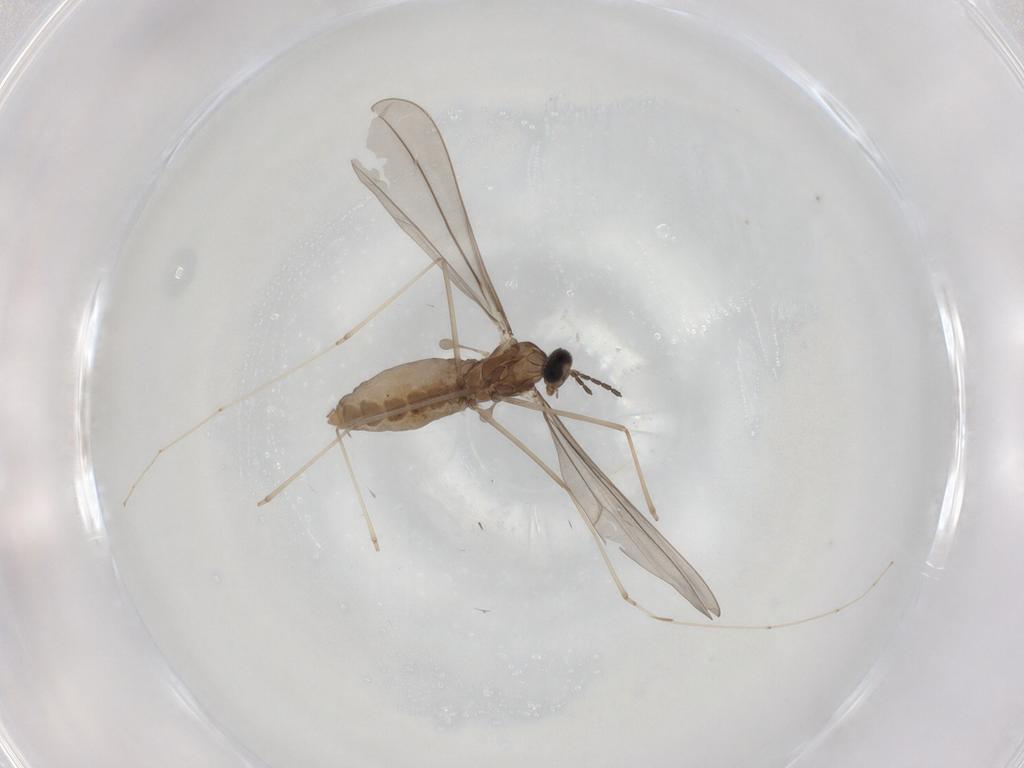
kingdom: Animalia
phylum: Arthropoda
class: Insecta
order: Diptera
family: Cecidomyiidae
